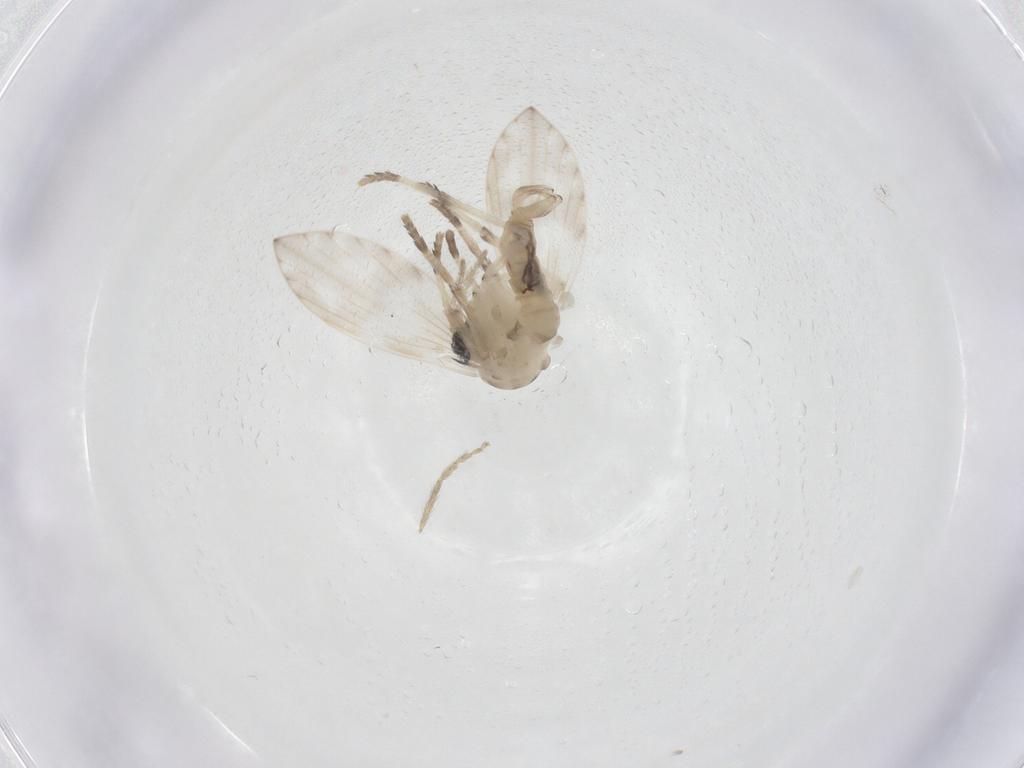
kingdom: Animalia
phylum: Arthropoda
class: Insecta
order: Diptera
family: Psychodidae
